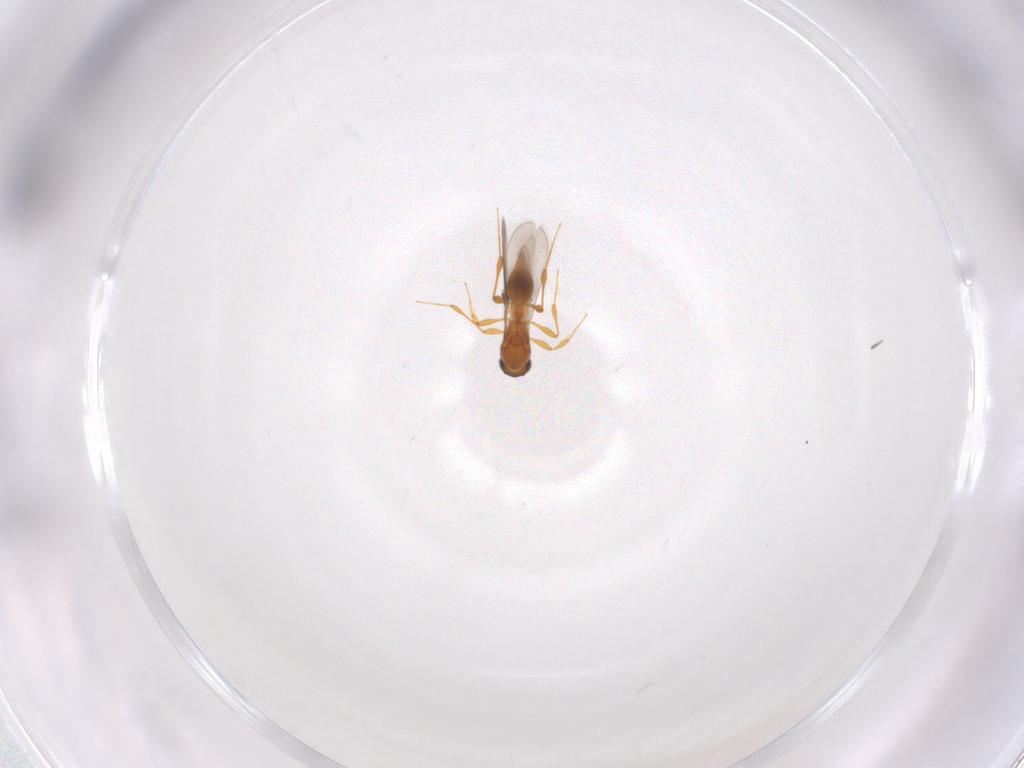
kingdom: Animalia
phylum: Arthropoda
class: Insecta
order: Hymenoptera
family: Platygastridae
